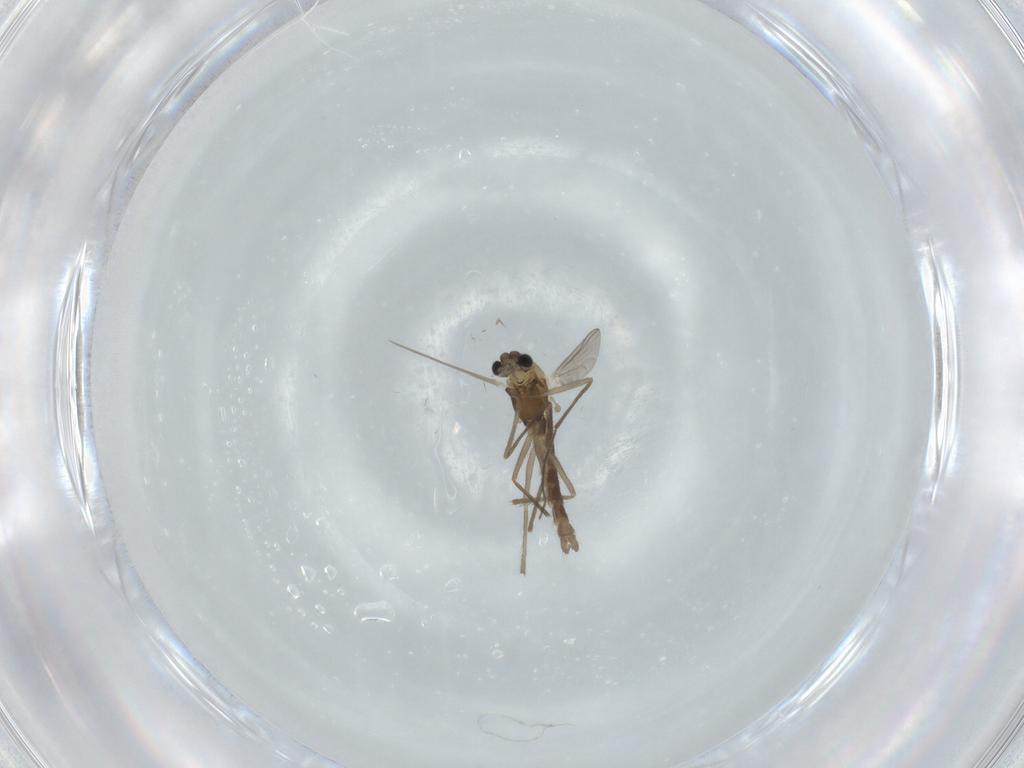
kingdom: Animalia
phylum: Arthropoda
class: Insecta
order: Diptera
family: Chironomidae
